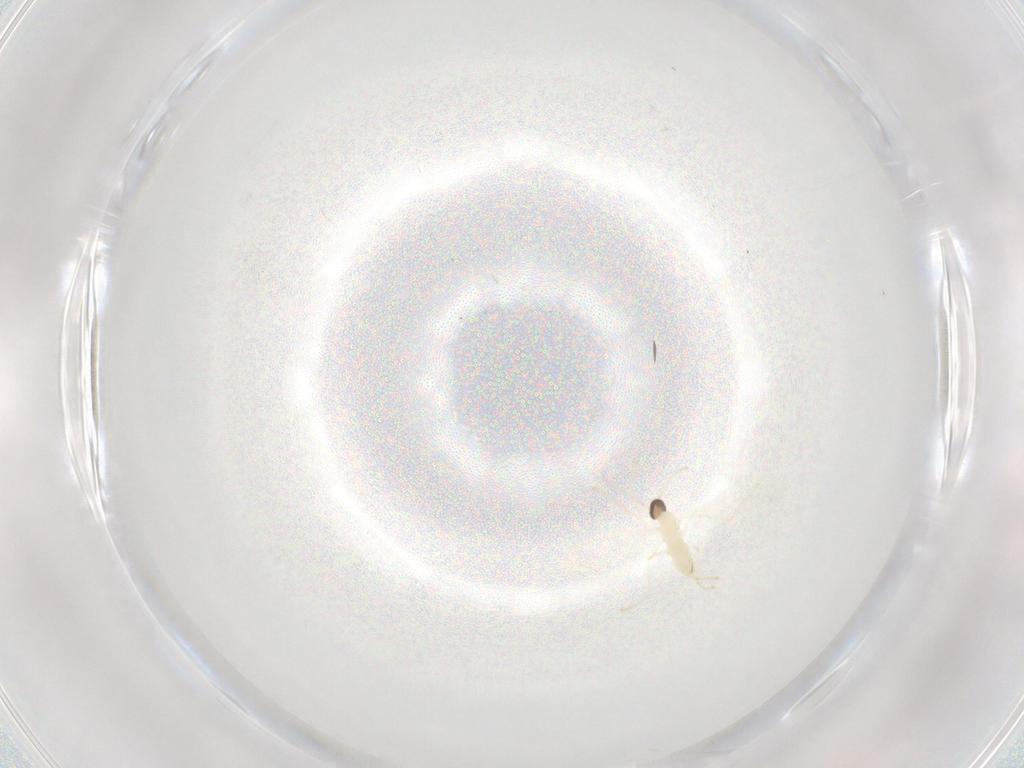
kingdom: Animalia
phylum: Arthropoda
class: Insecta
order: Diptera
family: Cecidomyiidae
